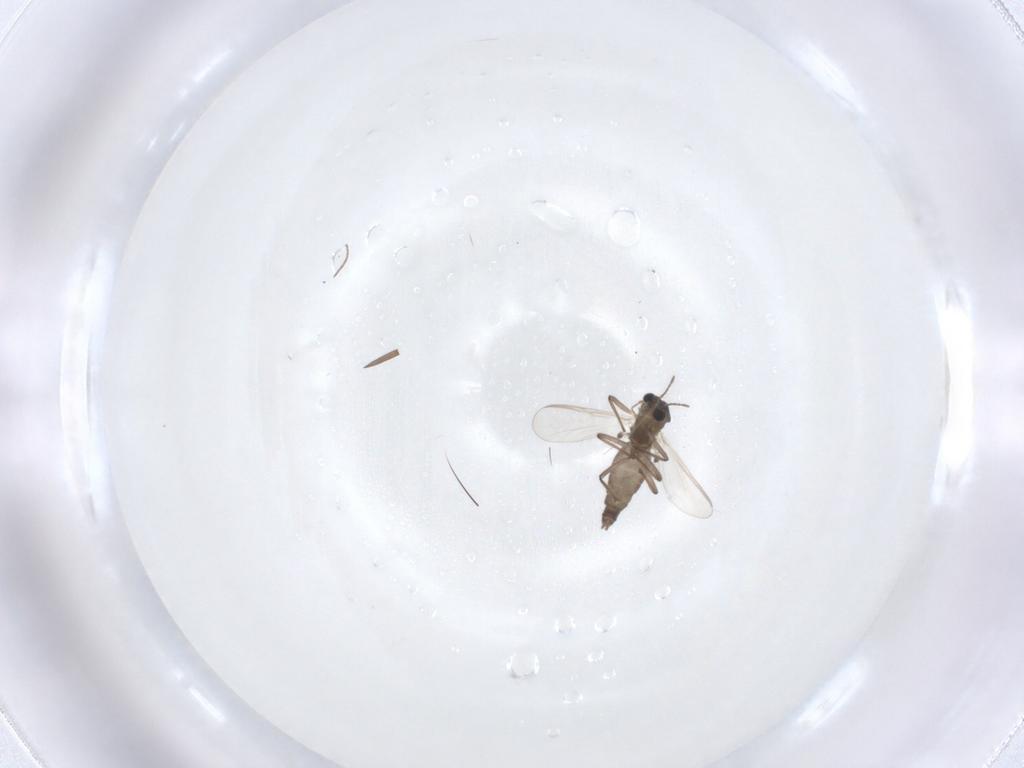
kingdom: Animalia
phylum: Arthropoda
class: Insecta
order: Diptera
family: Chironomidae
